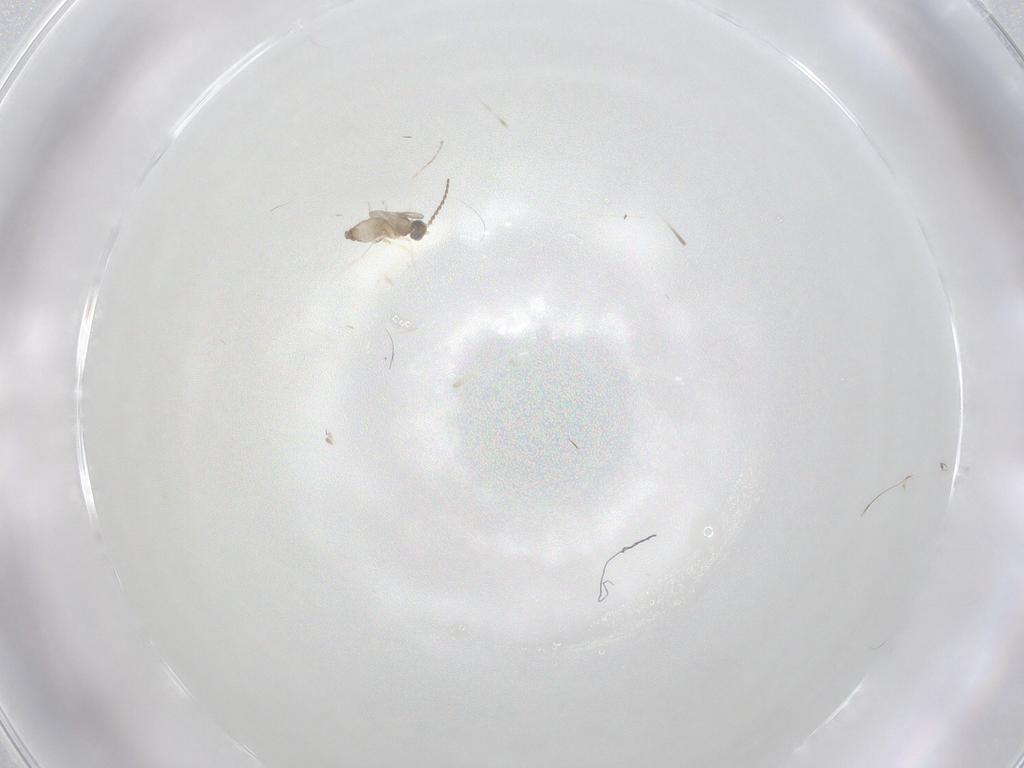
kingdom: Animalia
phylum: Arthropoda
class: Insecta
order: Diptera
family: Cecidomyiidae
